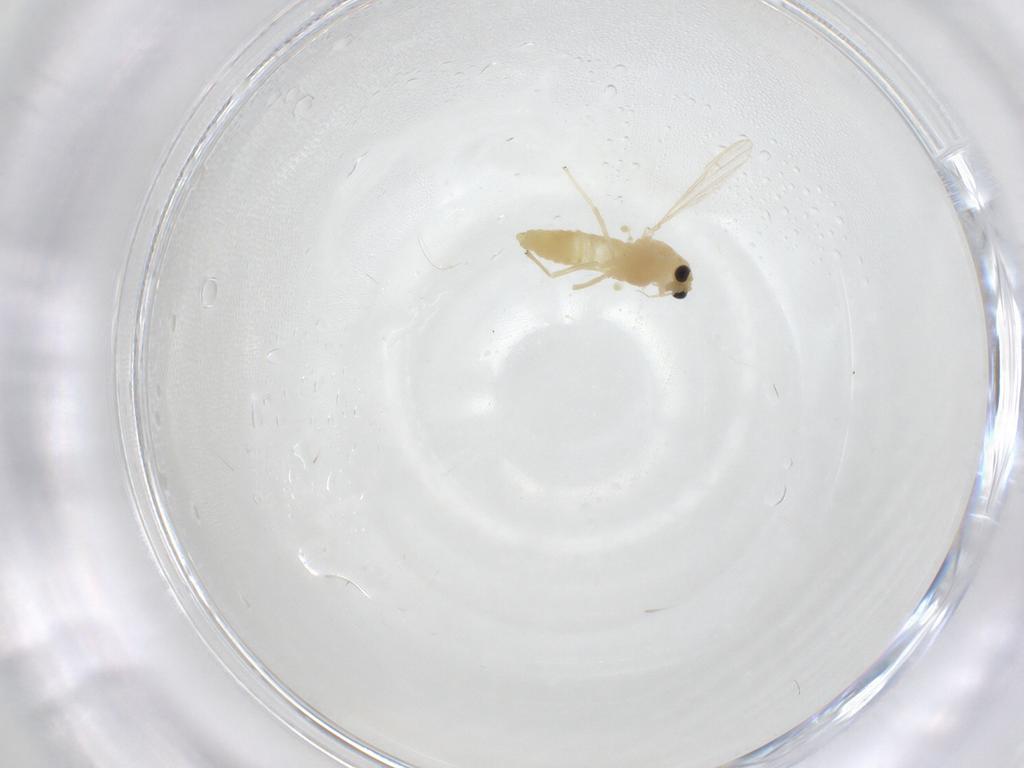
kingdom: Animalia
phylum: Arthropoda
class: Insecta
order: Diptera
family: Chironomidae
